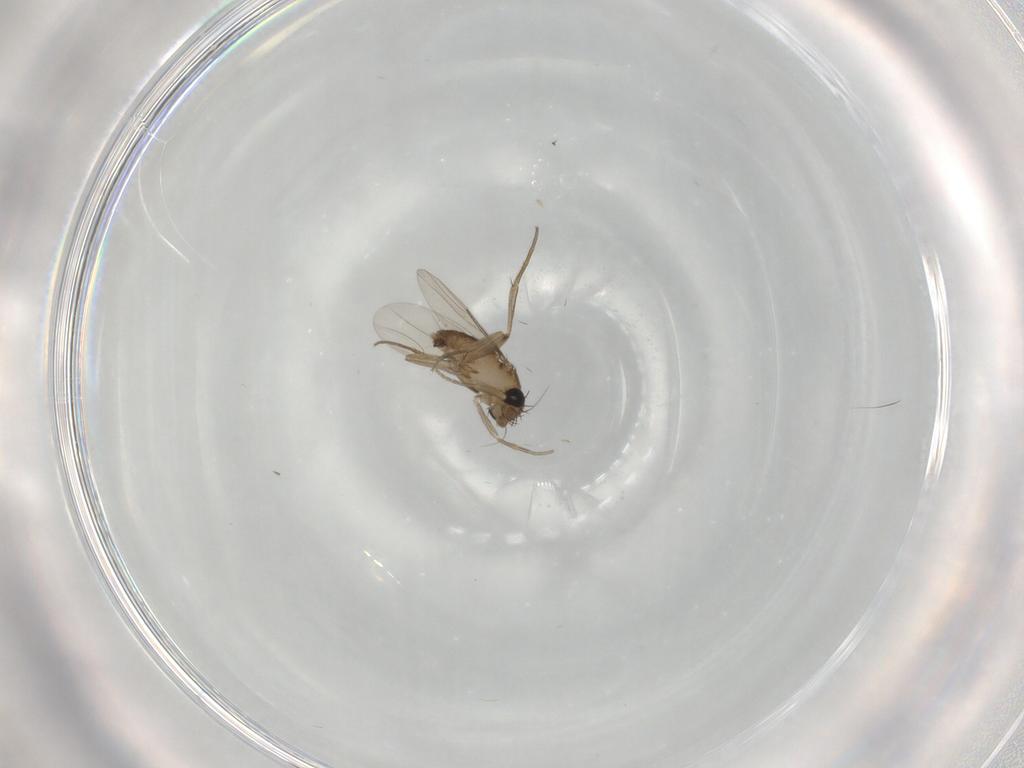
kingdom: Animalia
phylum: Arthropoda
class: Insecta
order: Diptera
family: Phoridae
